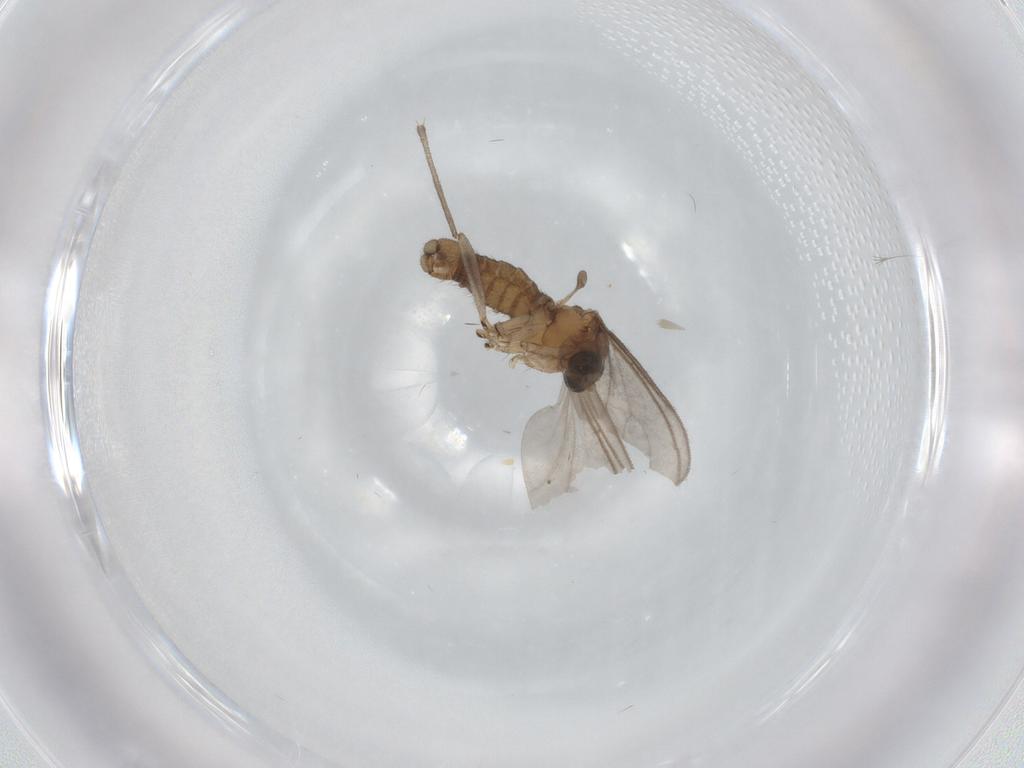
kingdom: Animalia
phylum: Arthropoda
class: Insecta
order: Diptera
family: Sciaridae
